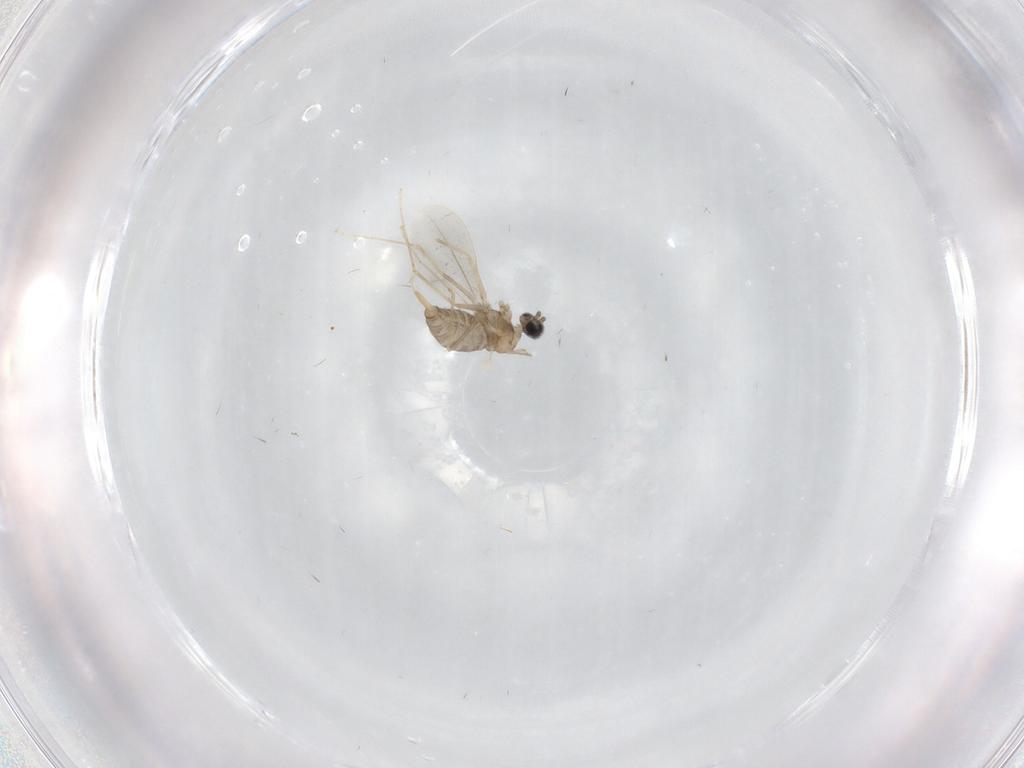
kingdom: Animalia
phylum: Arthropoda
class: Insecta
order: Diptera
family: Cecidomyiidae
